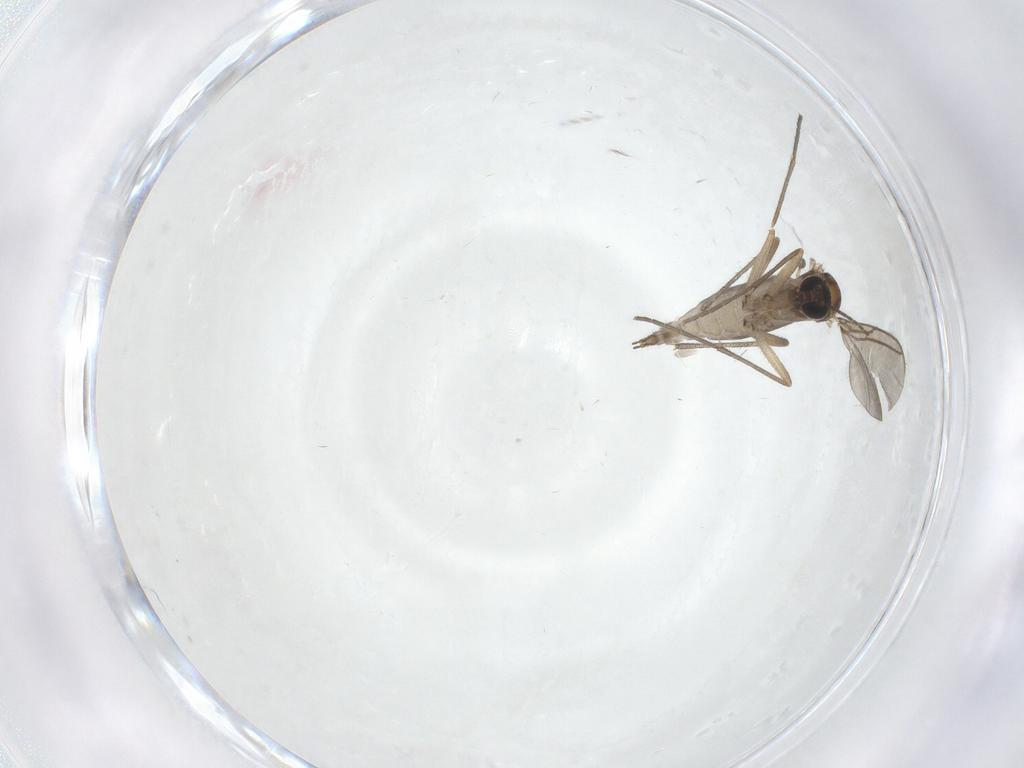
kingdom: Animalia
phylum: Arthropoda
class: Insecta
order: Diptera
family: Sciaridae
